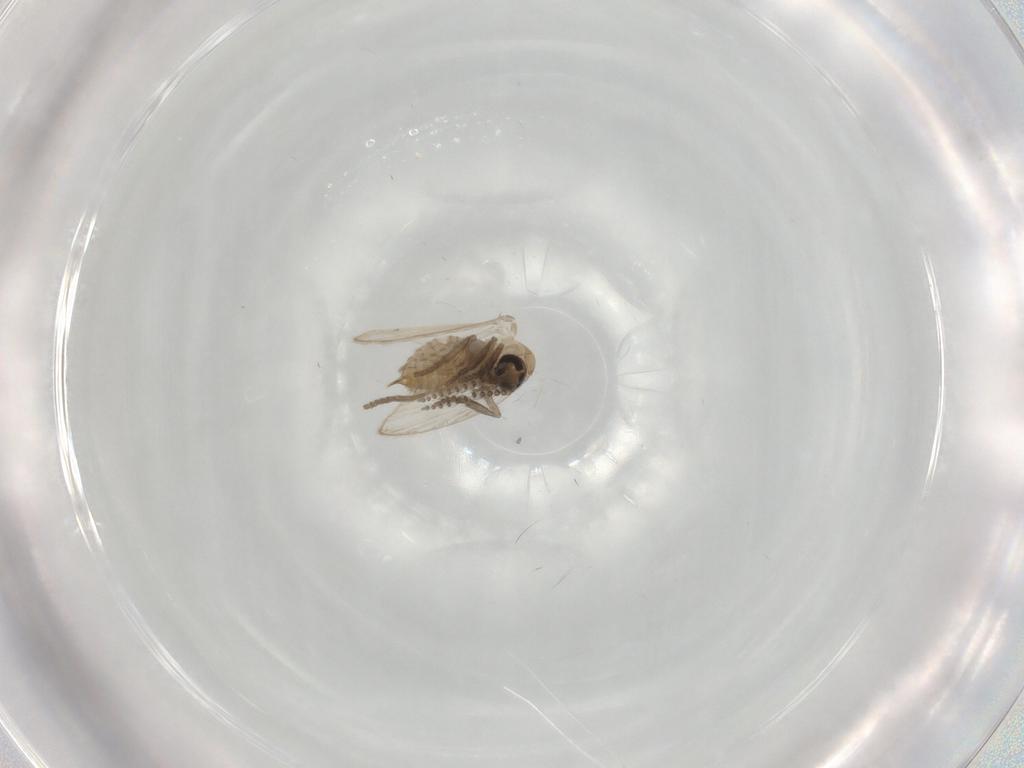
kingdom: Animalia
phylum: Arthropoda
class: Insecta
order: Diptera
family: Psychodidae
